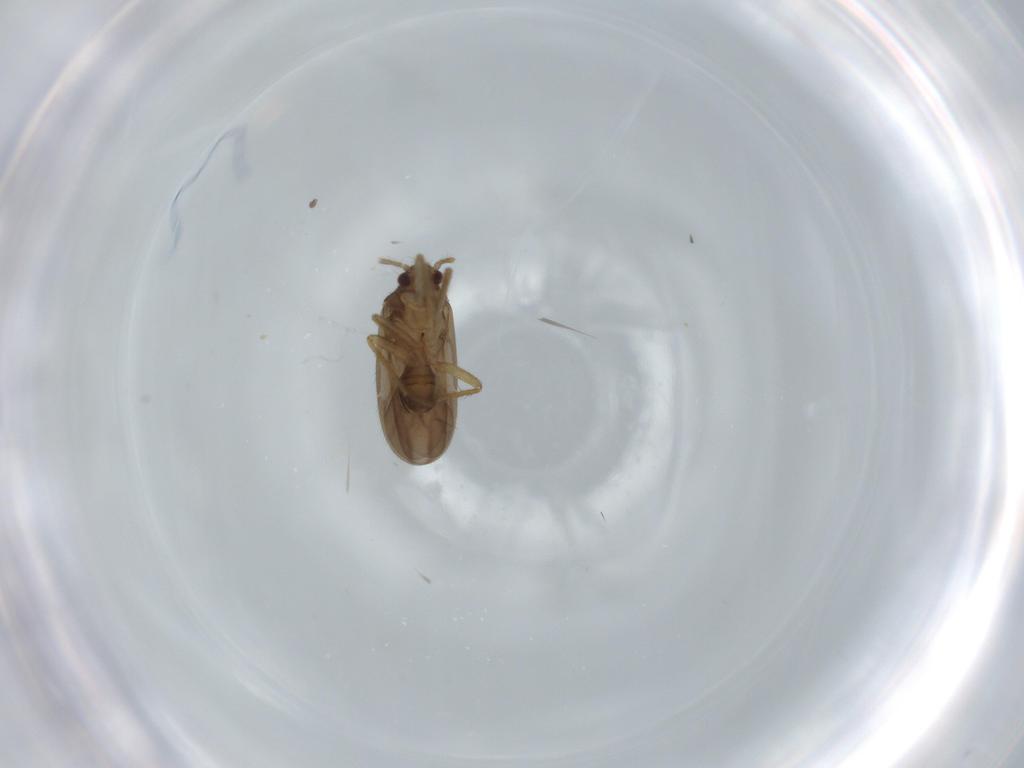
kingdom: Animalia
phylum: Arthropoda
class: Insecta
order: Hemiptera
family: Ceratocombidae
